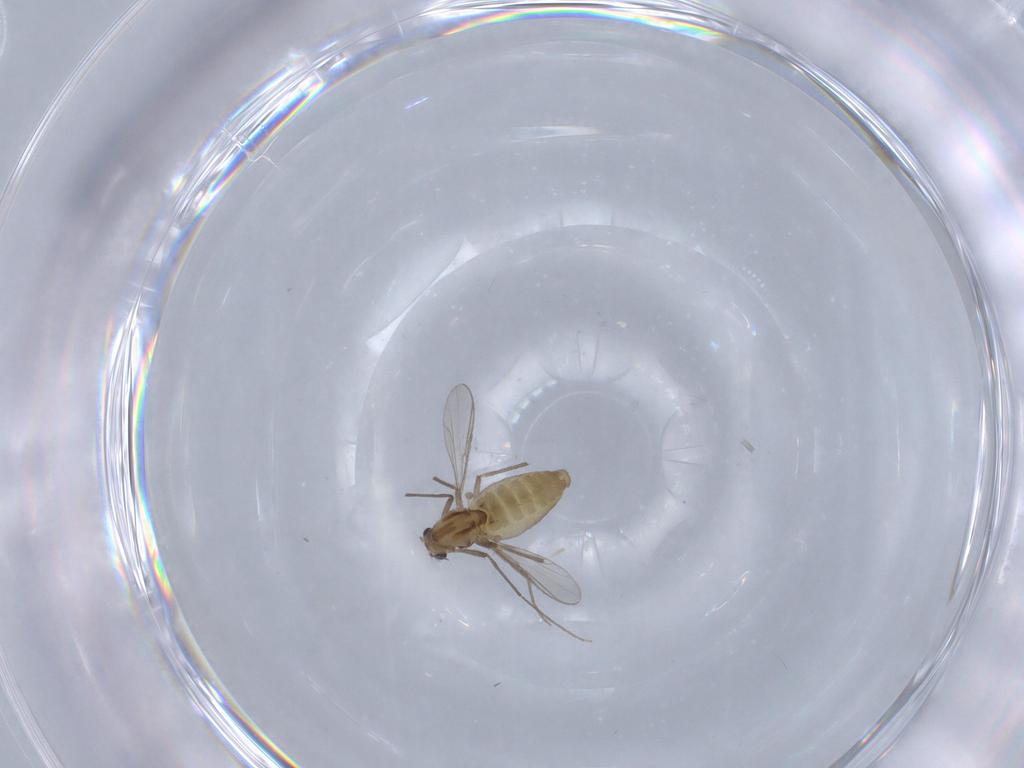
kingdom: Animalia
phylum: Arthropoda
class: Insecta
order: Diptera
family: Chironomidae
